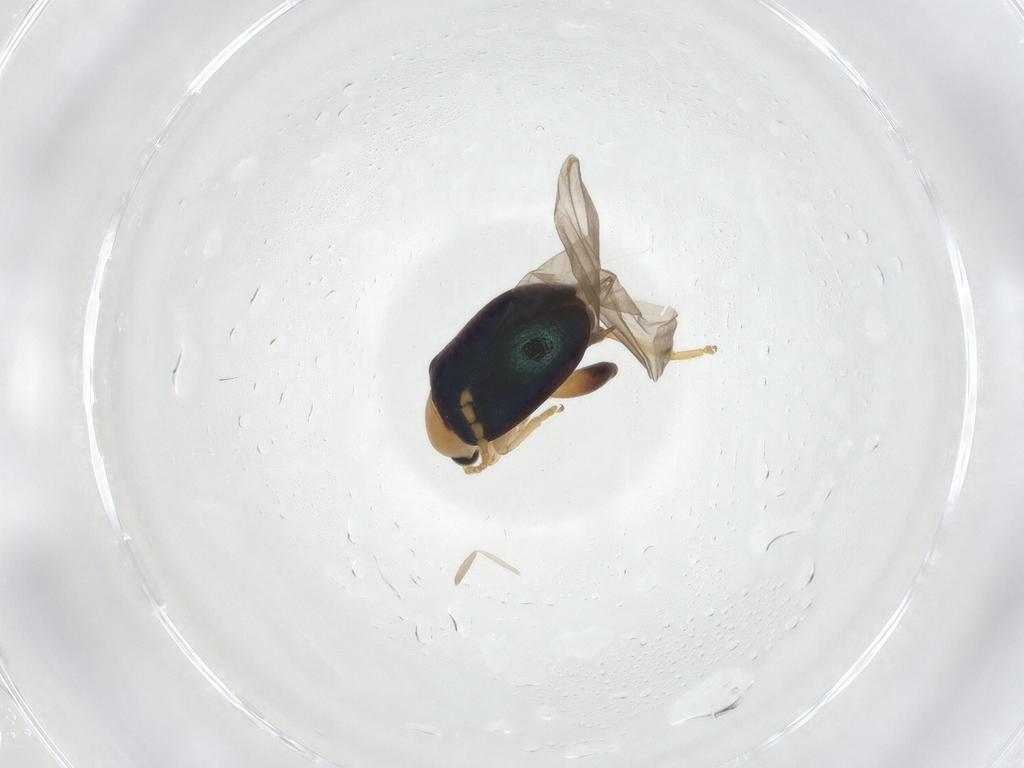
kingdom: Animalia
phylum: Arthropoda
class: Insecta
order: Coleoptera
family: Chrysomelidae
